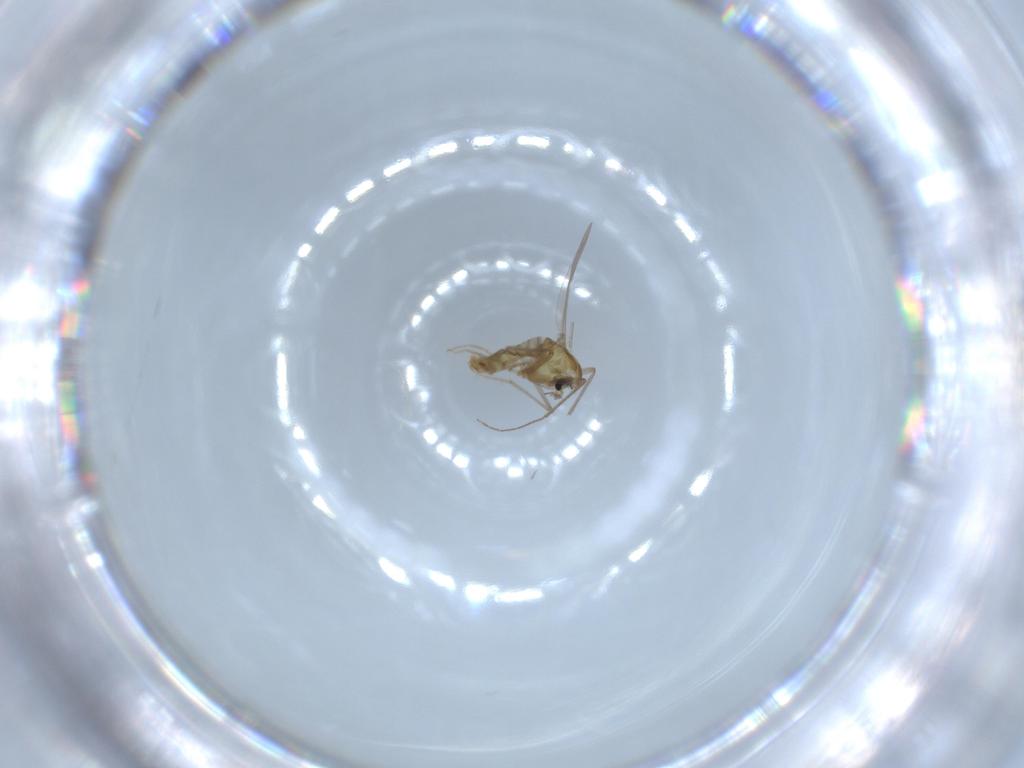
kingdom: Animalia
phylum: Arthropoda
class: Insecta
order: Diptera
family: Chironomidae
